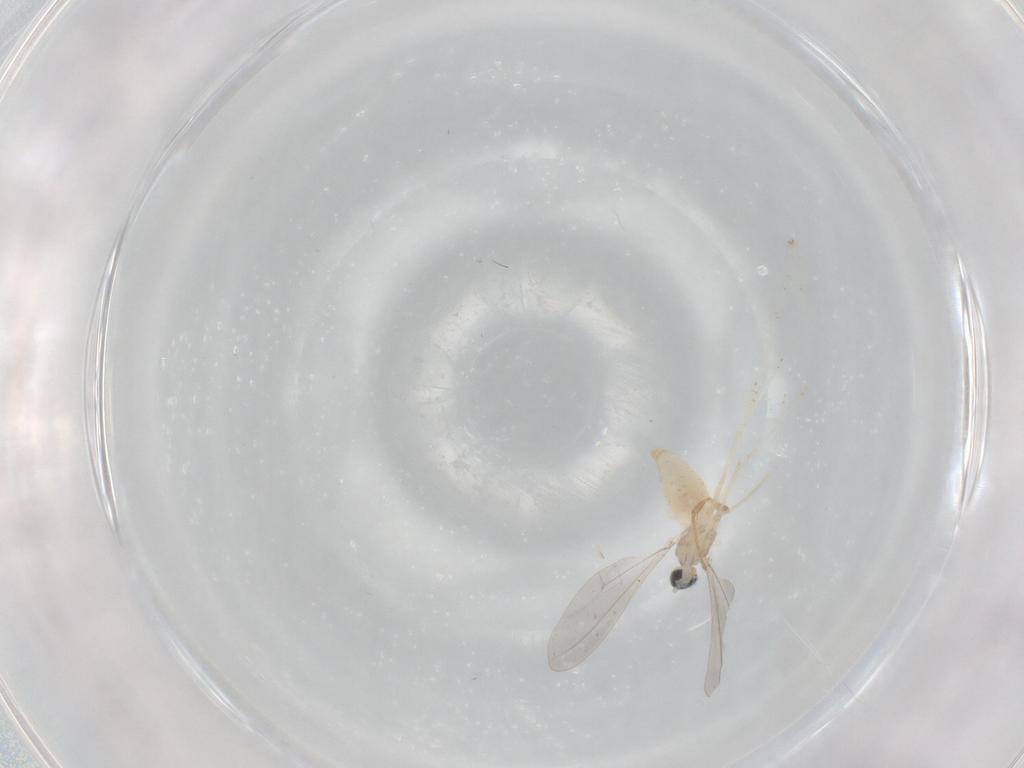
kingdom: Animalia
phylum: Arthropoda
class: Insecta
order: Diptera
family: Cecidomyiidae
